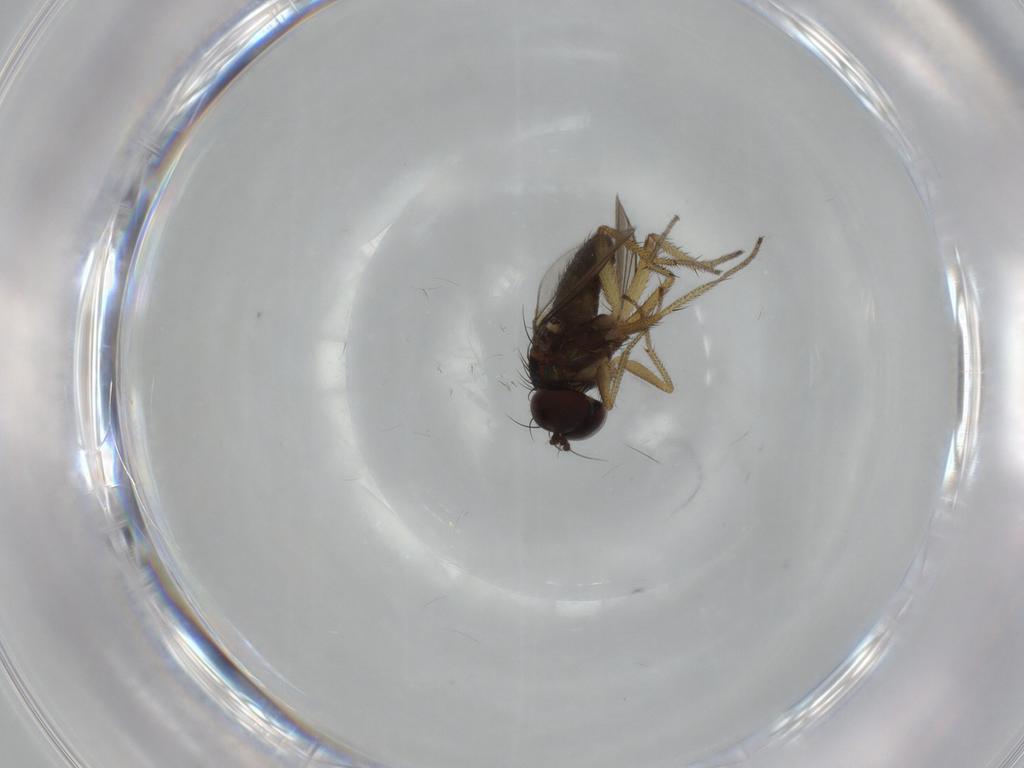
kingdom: Animalia
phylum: Arthropoda
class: Insecta
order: Diptera
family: Dolichopodidae
